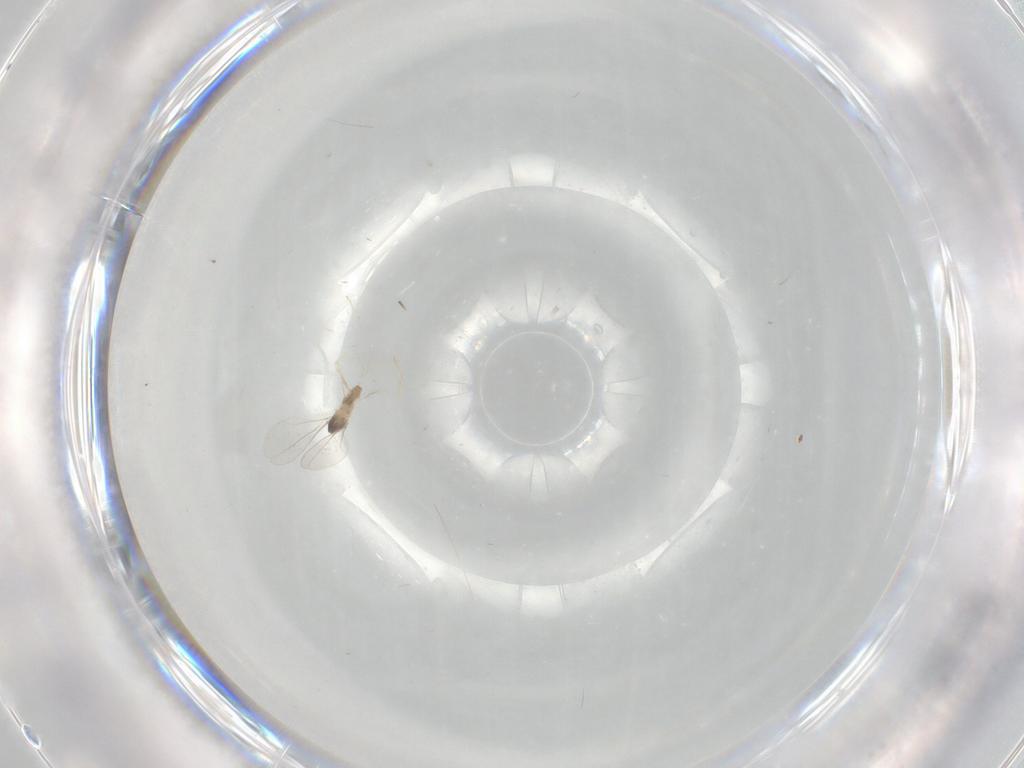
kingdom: Animalia
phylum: Arthropoda
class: Insecta
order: Diptera
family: Cecidomyiidae
